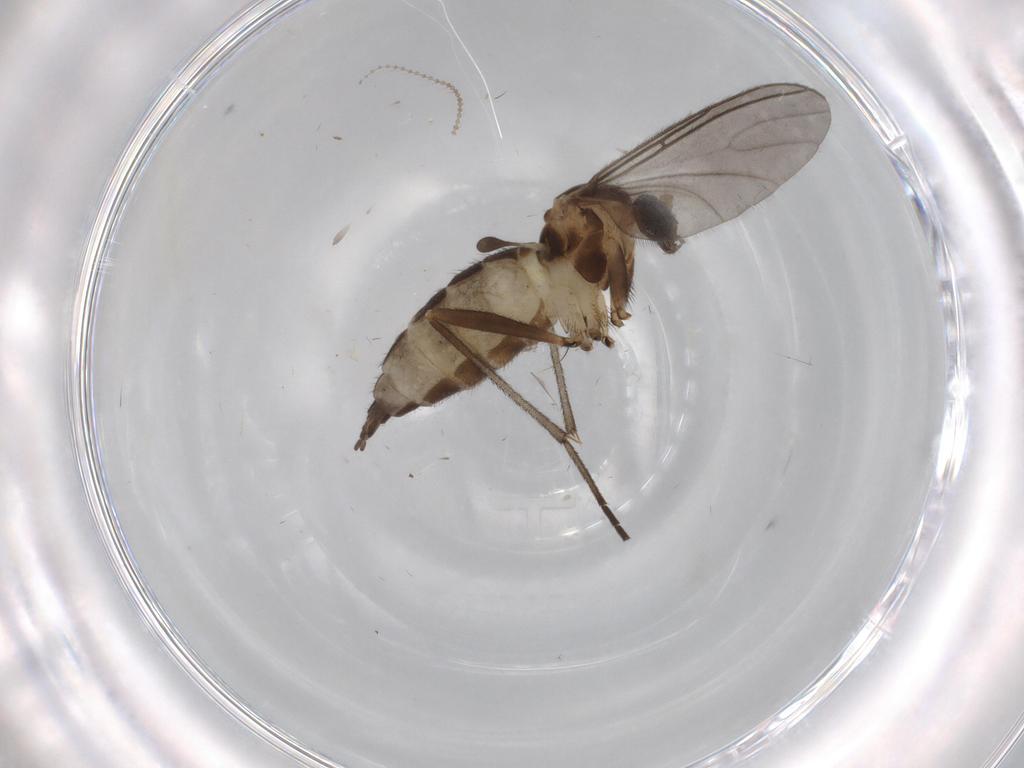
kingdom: Animalia
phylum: Arthropoda
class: Insecta
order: Diptera
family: Sciaridae
